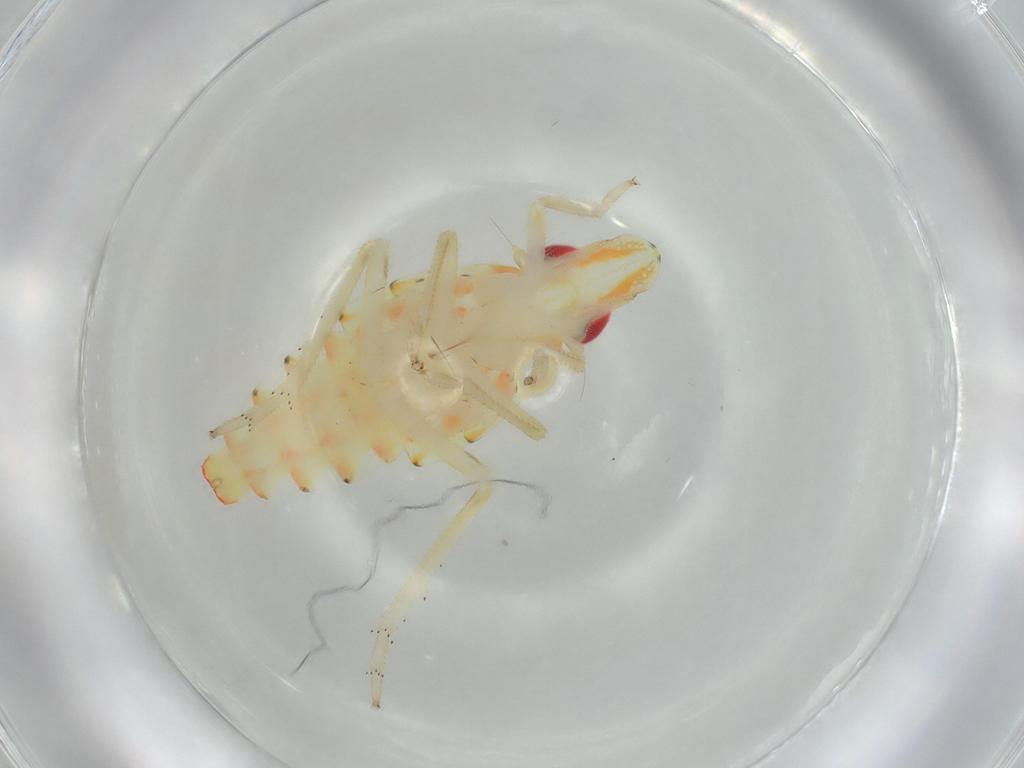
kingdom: Animalia
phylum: Arthropoda
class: Insecta
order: Hemiptera
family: Tropiduchidae
